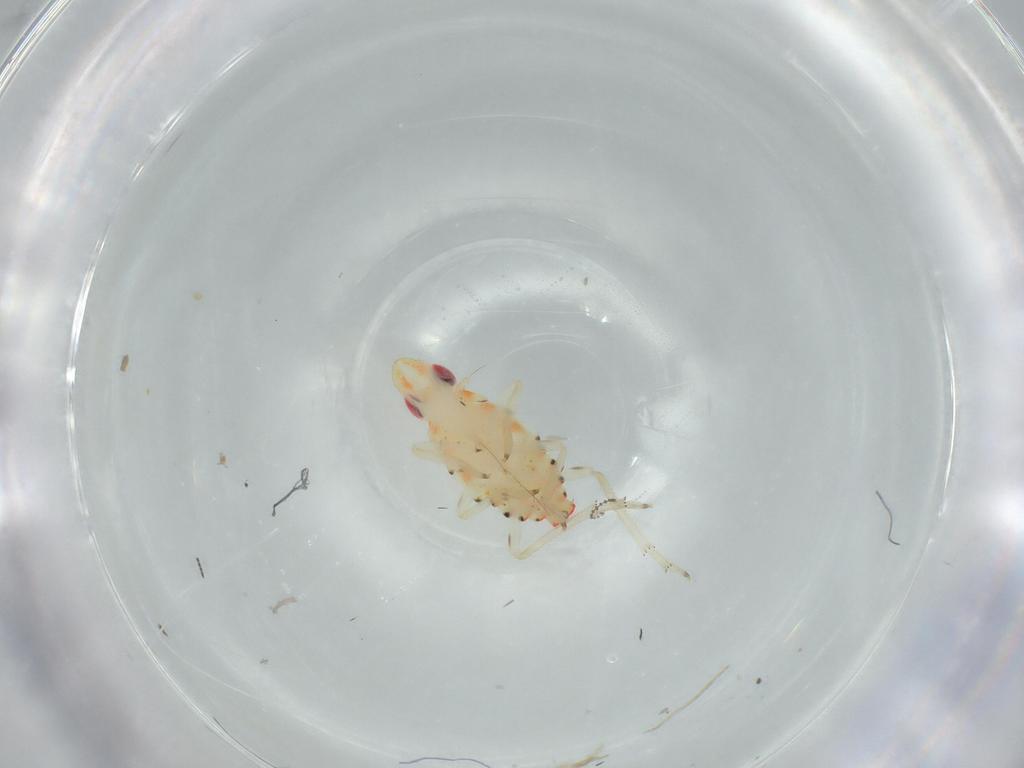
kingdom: Animalia
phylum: Arthropoda
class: Insecta
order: Hemiptera
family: Tropiduchidae
